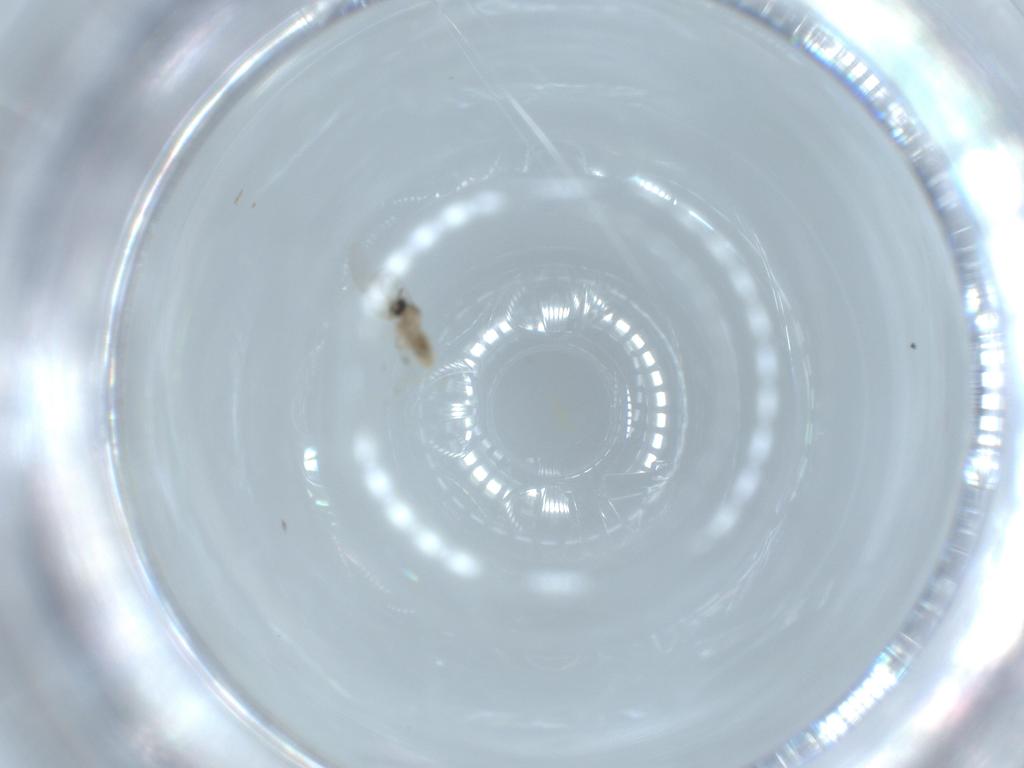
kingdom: Animalia
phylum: Arthropoda
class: Insecta
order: Diptera
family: Cecidomyiidae
